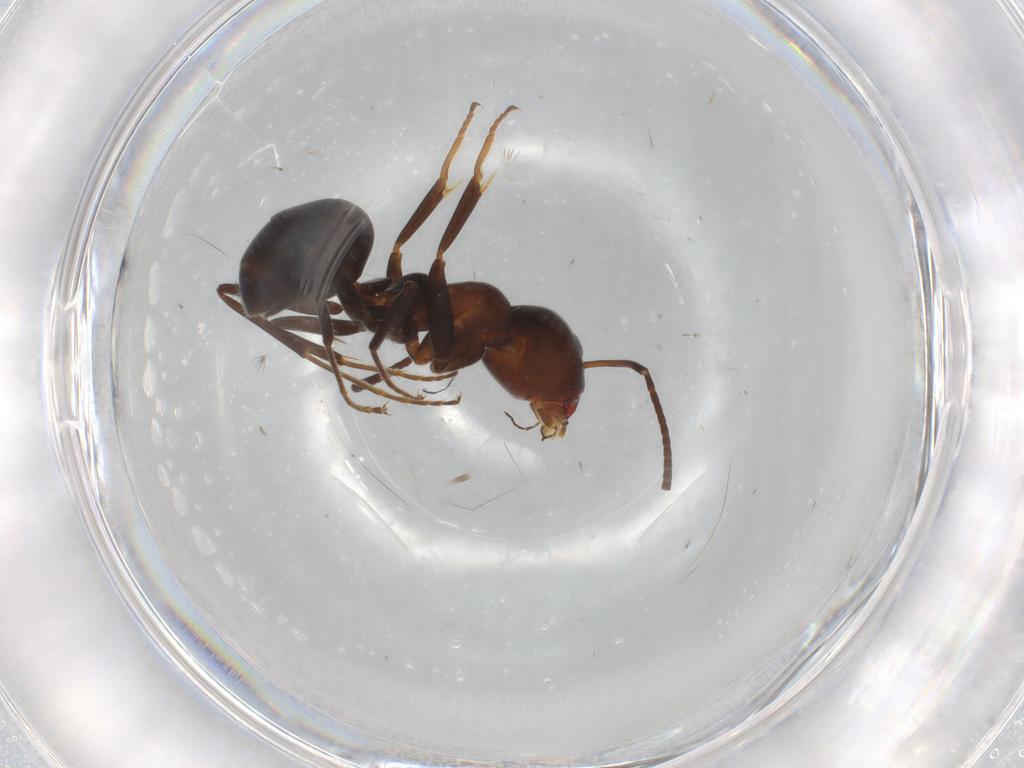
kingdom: Animalia
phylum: Arthropoda
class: Insecta
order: Hymenoptera
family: Formicidae
